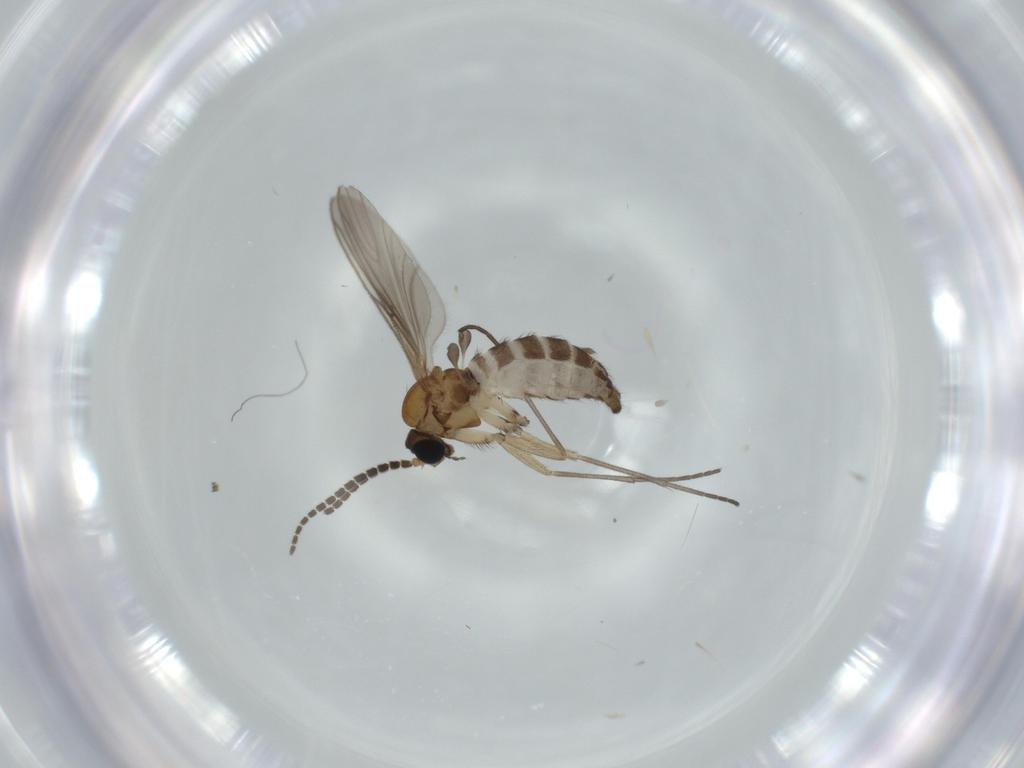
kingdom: Animalia
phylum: Arthropoda
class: Insecta
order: Diptera
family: Sciaridae
